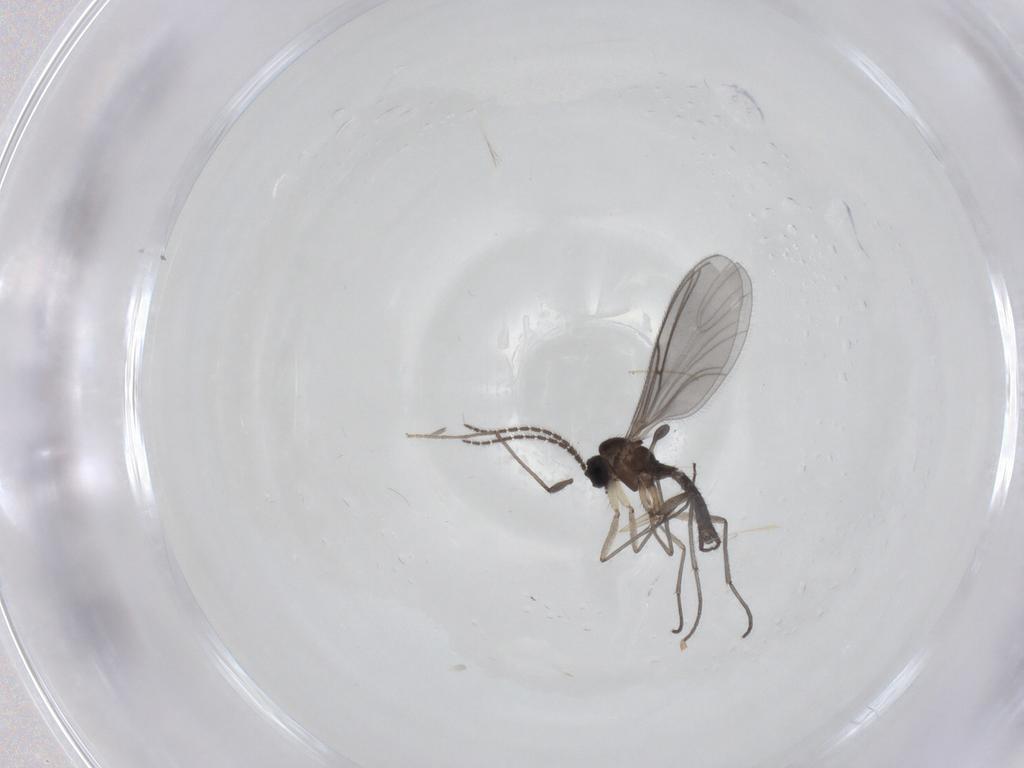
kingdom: Animalia
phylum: Arthropoda
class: Insecta
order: Diptera
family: Sciaridae
